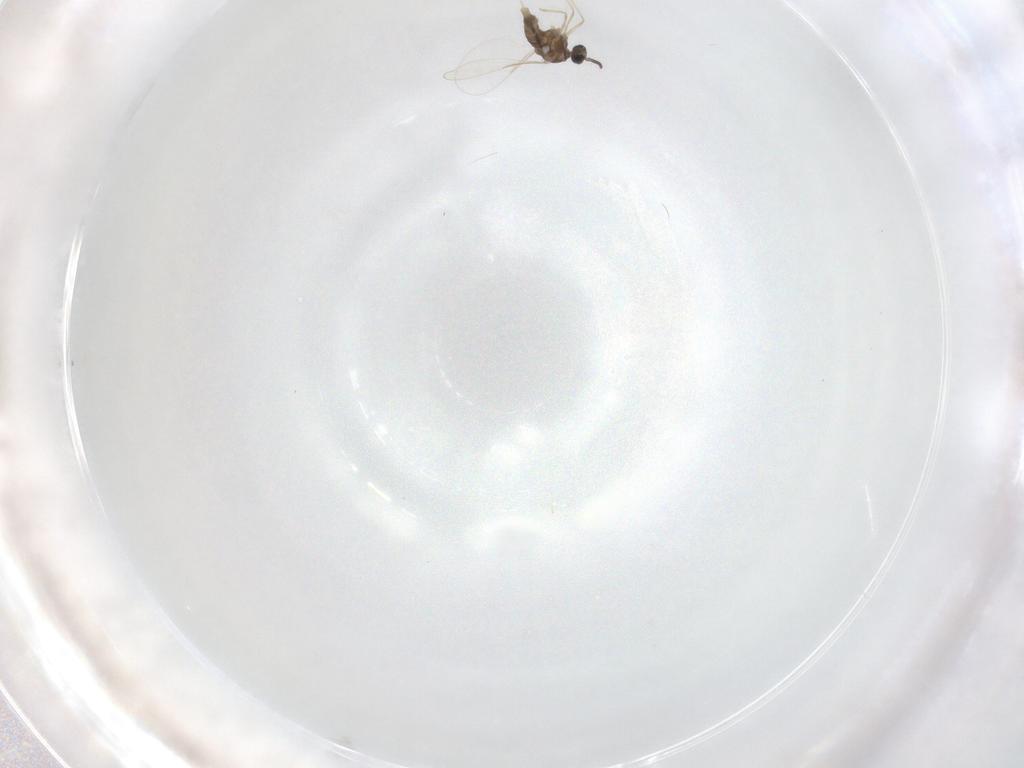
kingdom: Animalia
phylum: Arthropoda
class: Insecta
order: Diptera
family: Cecidomyiidae
